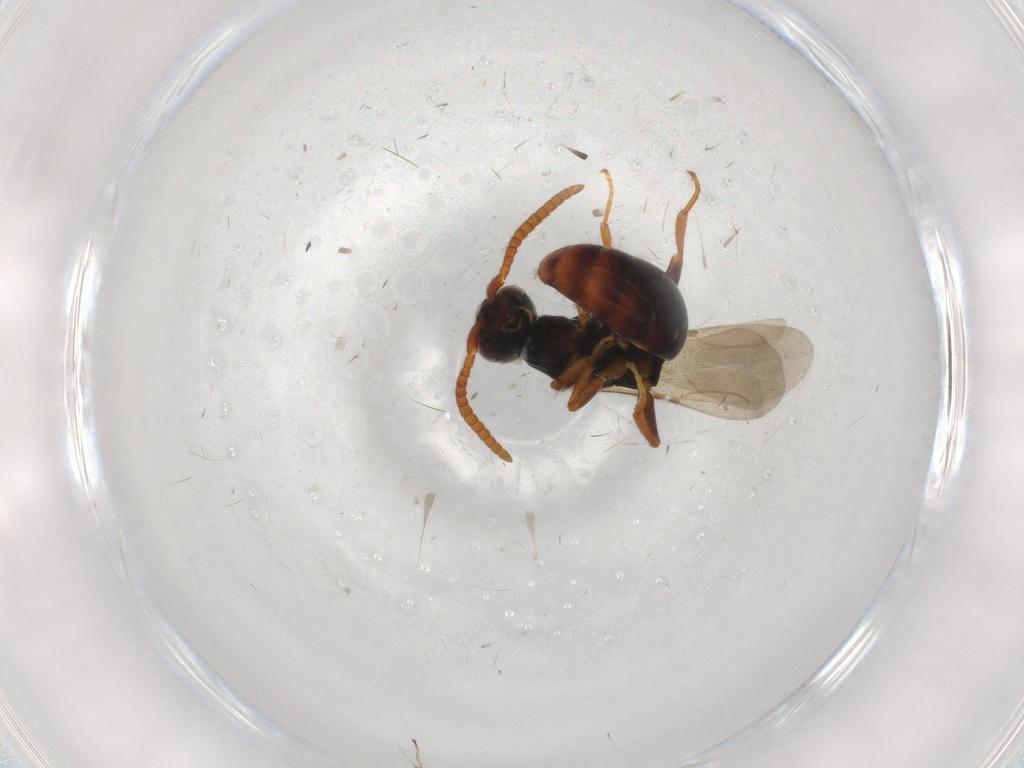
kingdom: Animalia
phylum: Arthropoda
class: Insecta
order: Hymenoptera
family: Bethylidae
